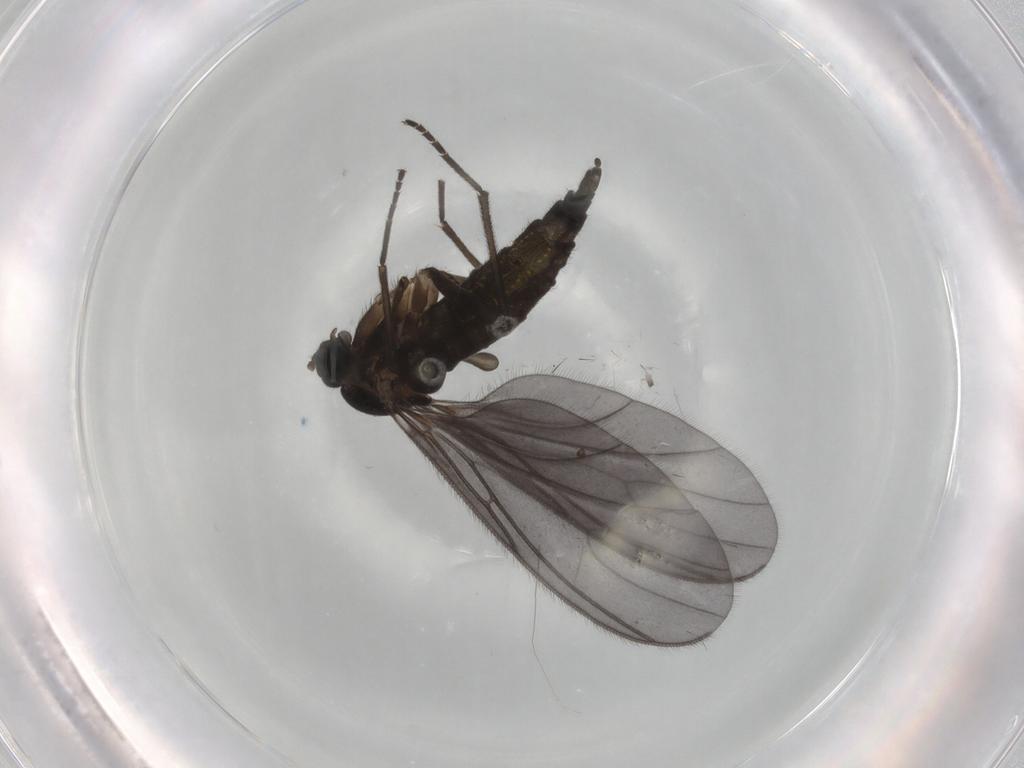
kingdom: Animalia
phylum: Arthropoda
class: Insecta
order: Diptera
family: Sciaridae
